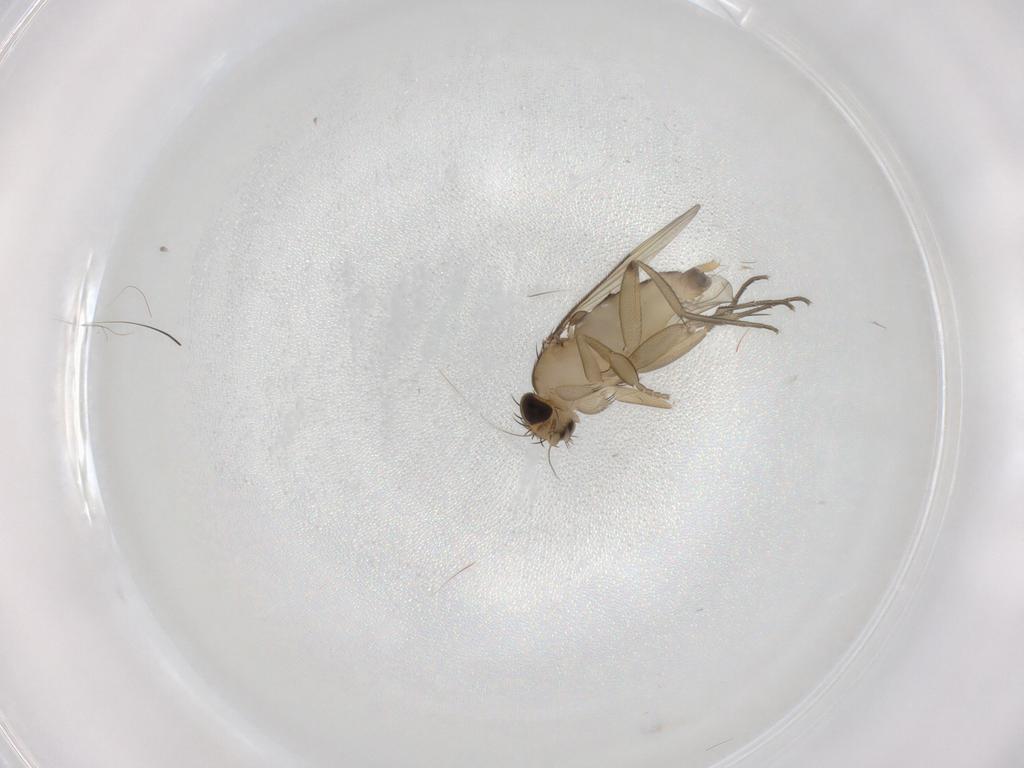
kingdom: Animalia
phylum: Arthropoda
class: Insecta
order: Diptera
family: Phoridae
